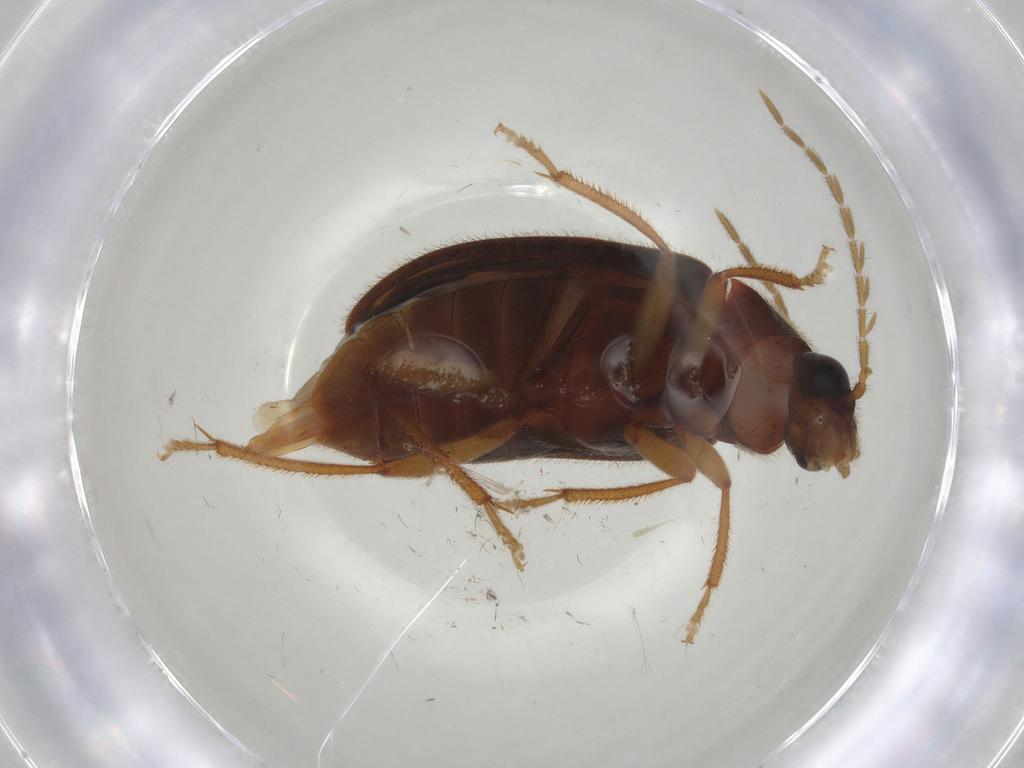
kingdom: Animalia
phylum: Arthropoda
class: Insecta
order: Coleoptera
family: Ptilodactylidae
